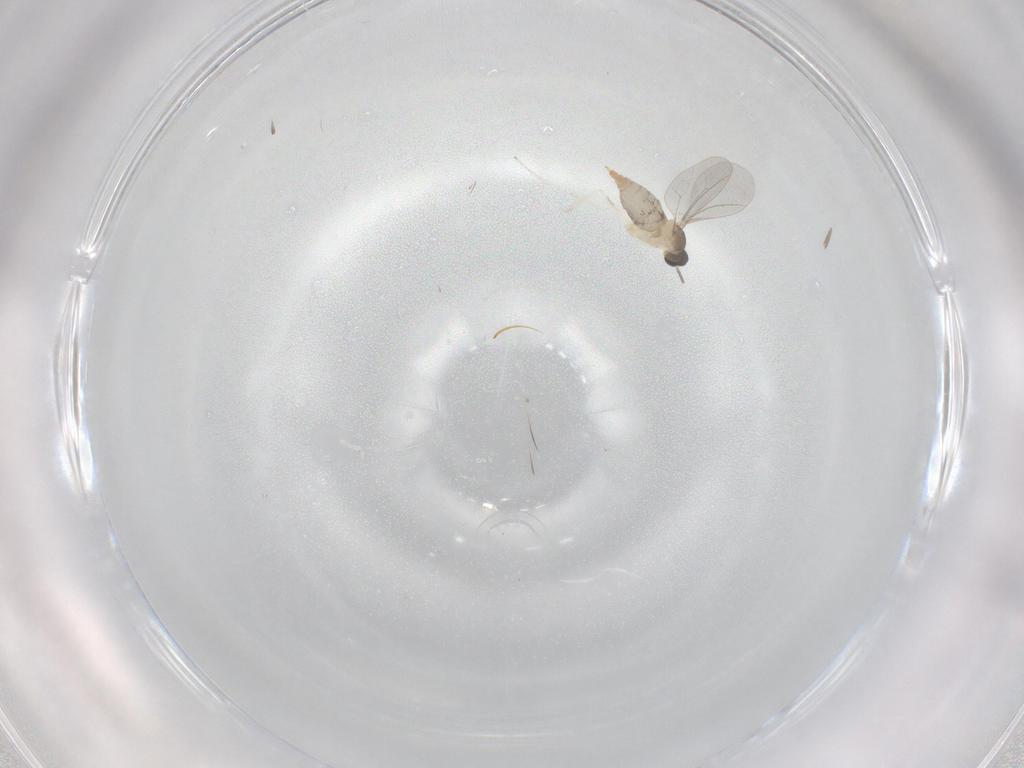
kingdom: Animalia
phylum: Arthropoda
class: Insecta
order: Diptera
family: Cecidomyiidae
